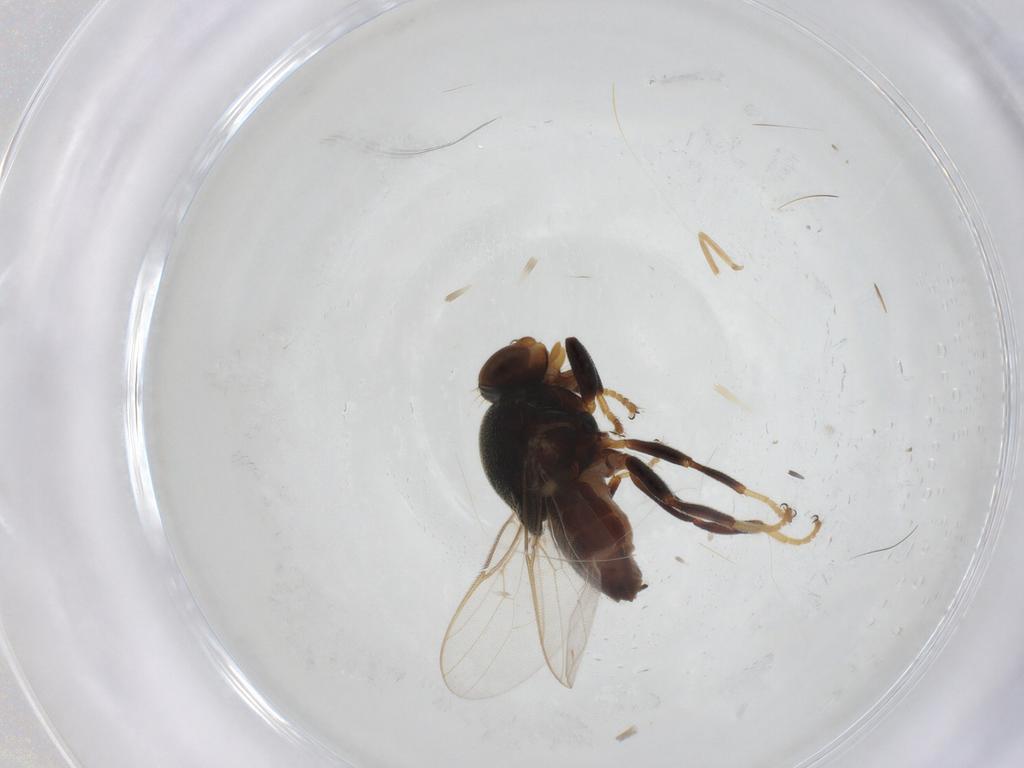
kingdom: Animalia
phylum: Arthropoda
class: Insecta
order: Diptera
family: Chloropidae
